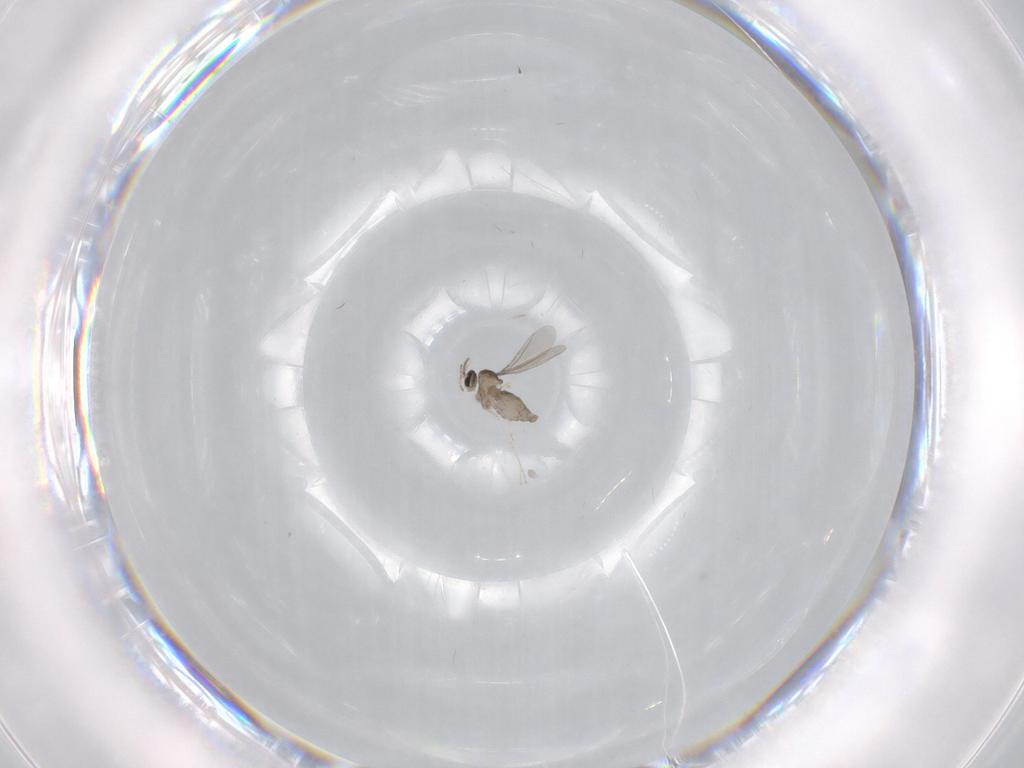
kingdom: Animalia
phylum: Arthropoda
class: Insecta
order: Diptera
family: Cecidomyiidae
